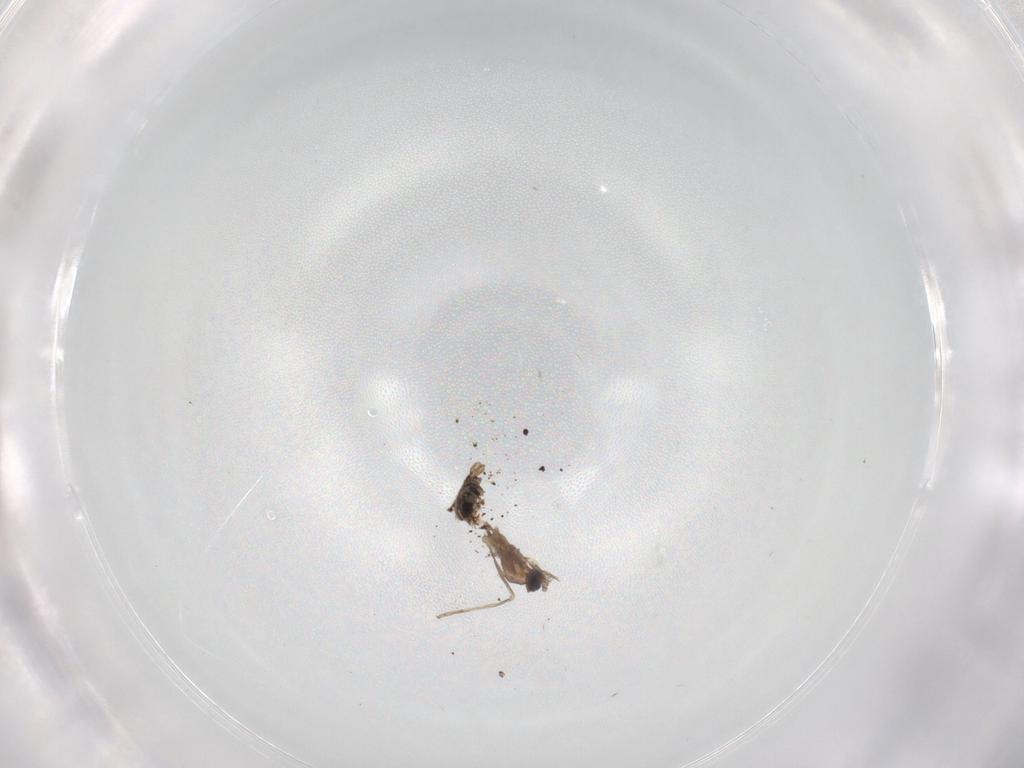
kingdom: Animalia
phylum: Arthropoda
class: Insecta
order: Diptera
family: Cecidomyiidae
